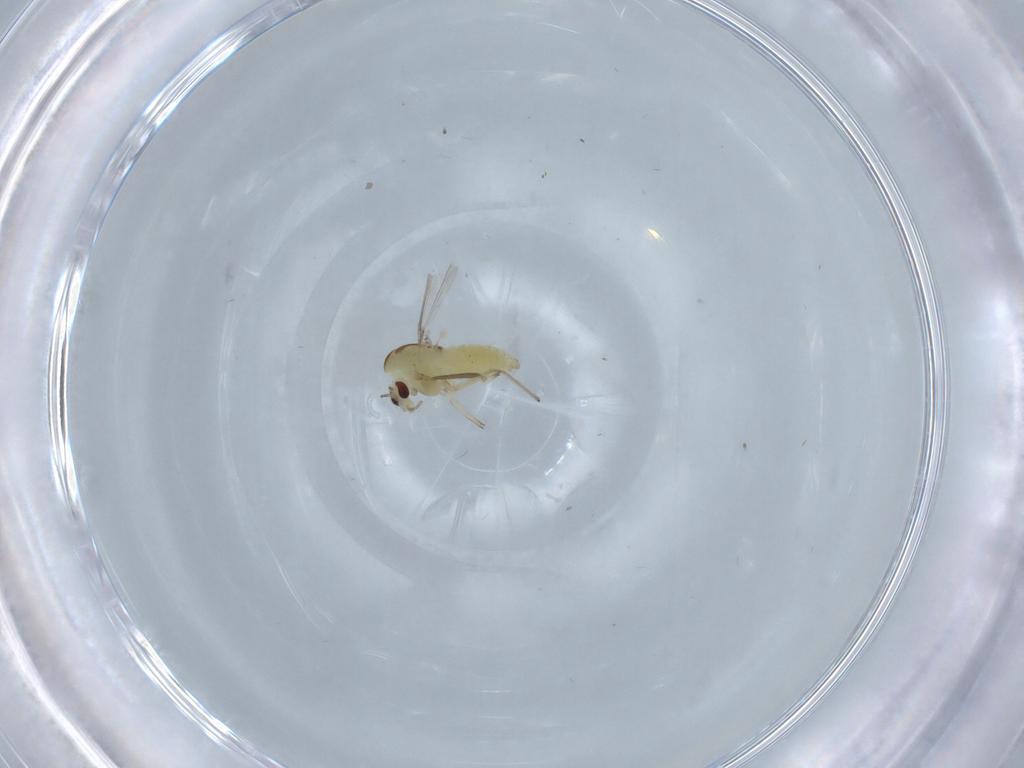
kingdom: Animalia
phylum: Arthropoda
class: Insecta
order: Diptera
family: Chironomidae
